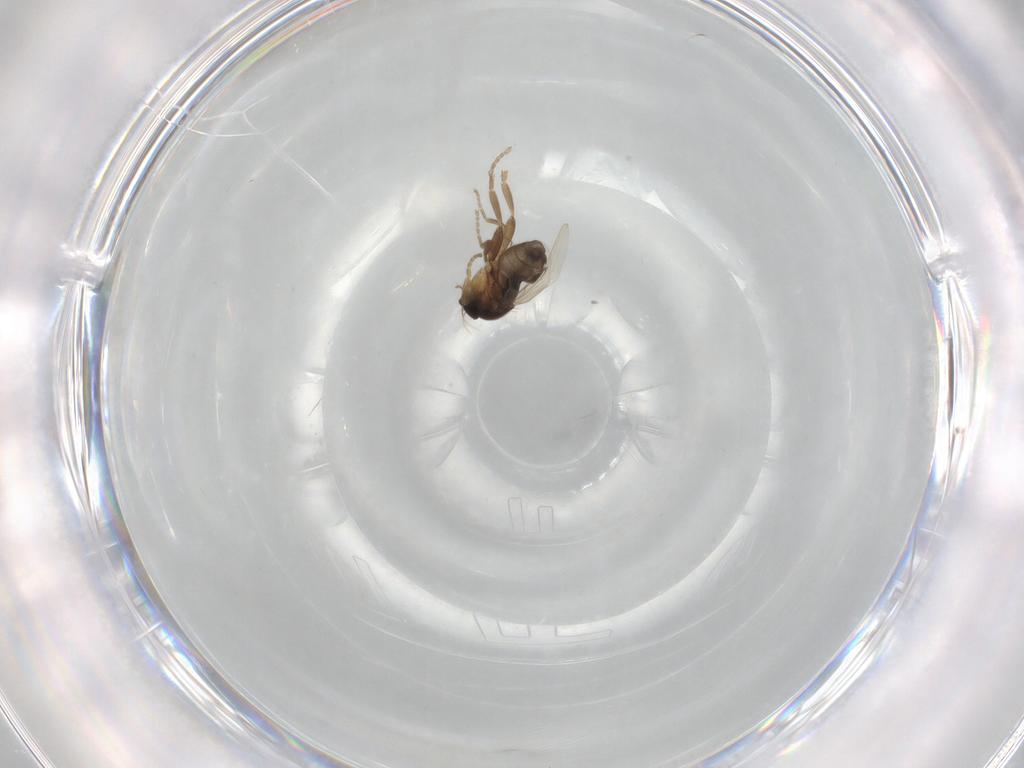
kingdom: Animalia
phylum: Arthropoda
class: Insecta
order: Diptera
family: Phoridae
